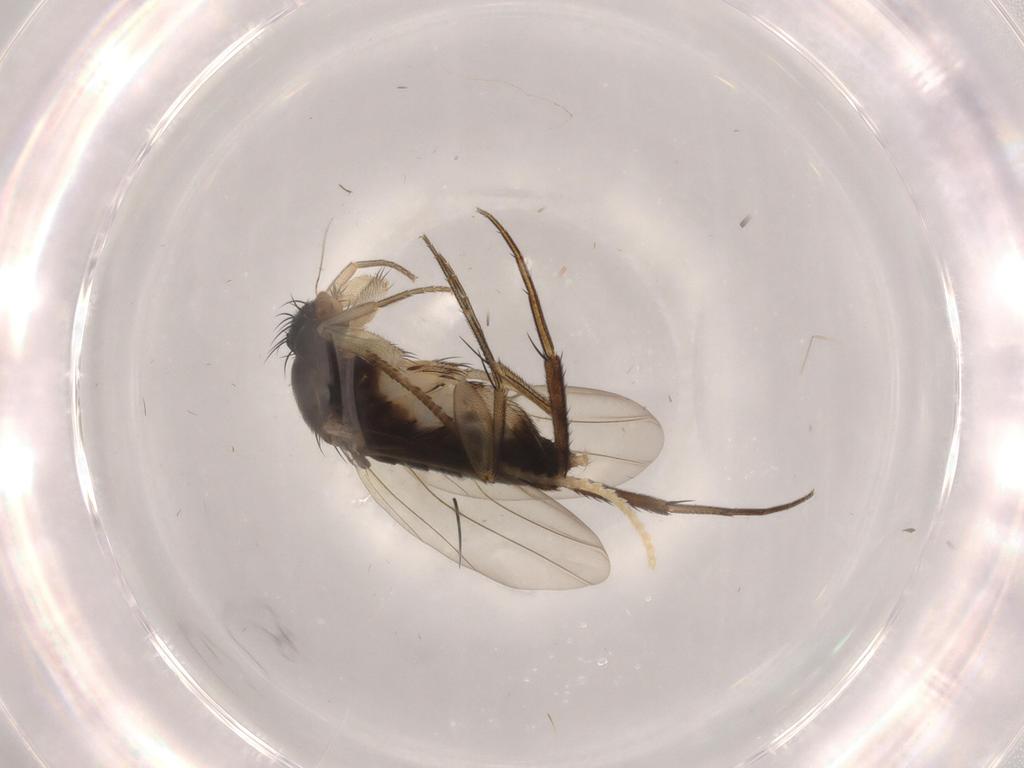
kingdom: Animalia
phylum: Arthropoda
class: Insecta
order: Diptera
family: Phoridae
